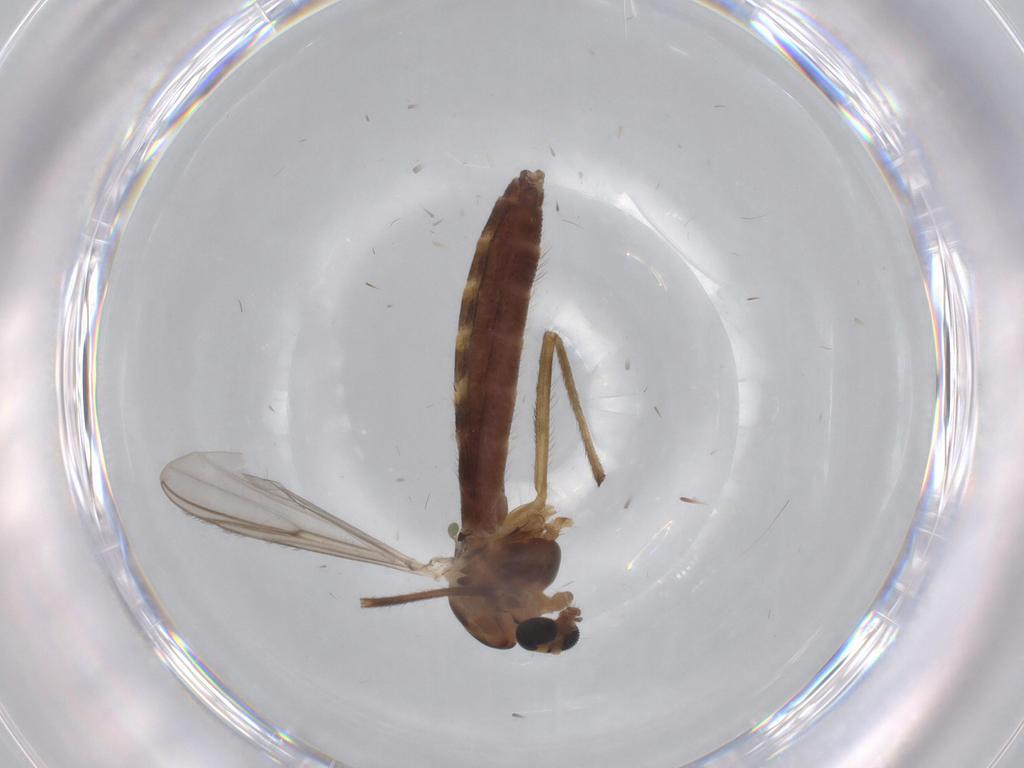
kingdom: Animalia
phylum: Arthropoda
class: Insecta
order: Diptera
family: Chironomidae
